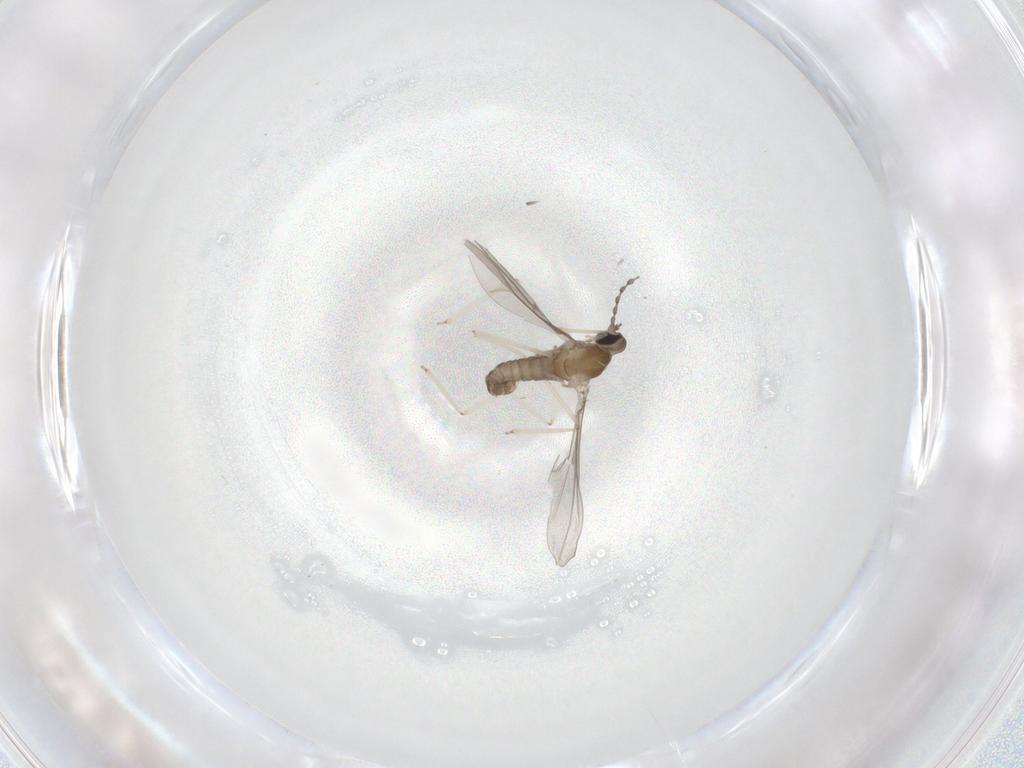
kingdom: Animalia
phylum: Arthropoda
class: Insecta
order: Diptera
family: Cecidomyiidae
